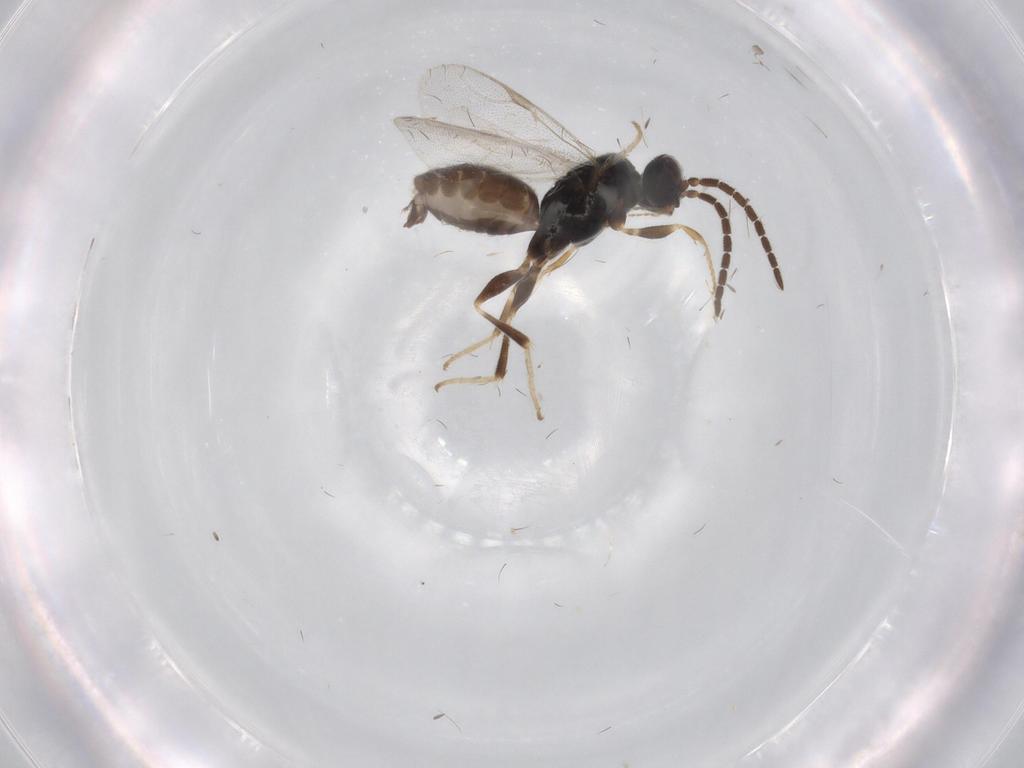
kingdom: Animalia
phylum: Arthropoda
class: Insecta
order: Hymenoptera
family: Dryinidae
